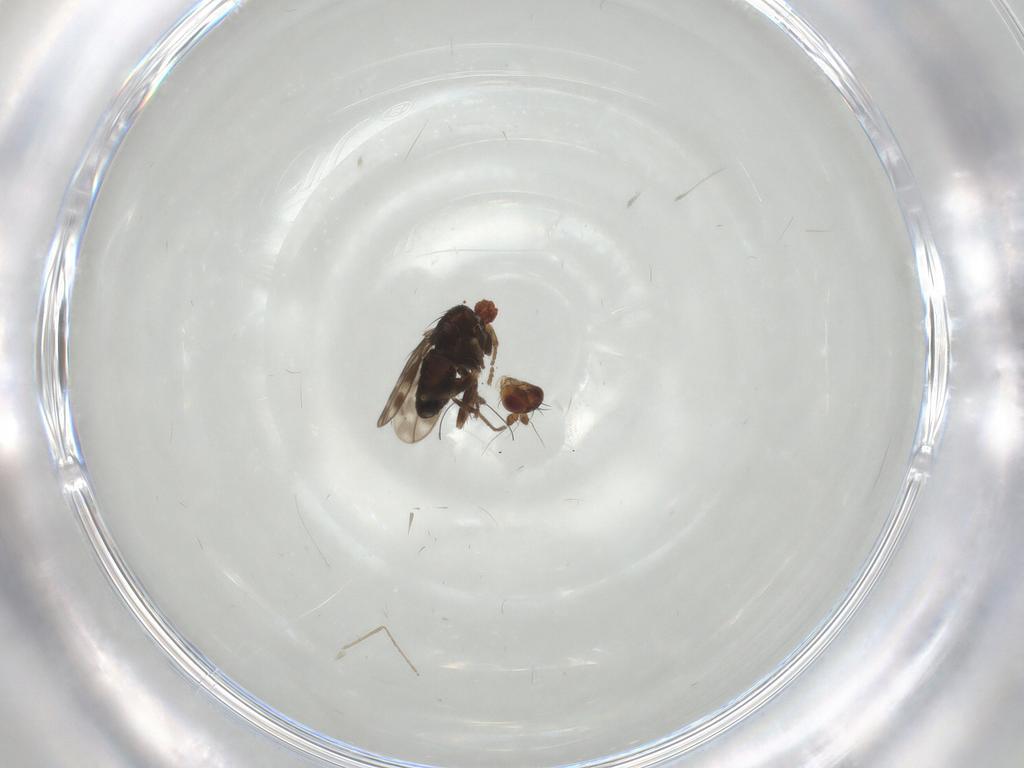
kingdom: Animalia
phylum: Arthropoda
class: Insecta
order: Diptera
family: Sphaeroceridae
